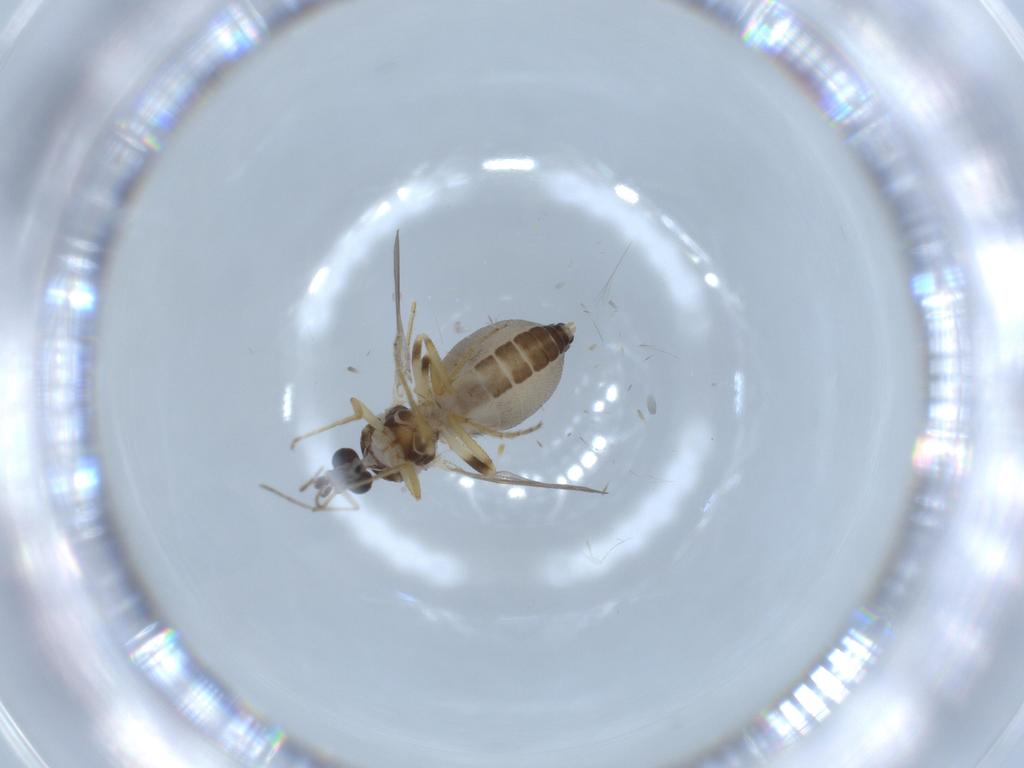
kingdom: Animalia
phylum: Arthropoda
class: Insecta
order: Diptera
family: Ceratopogonidae
